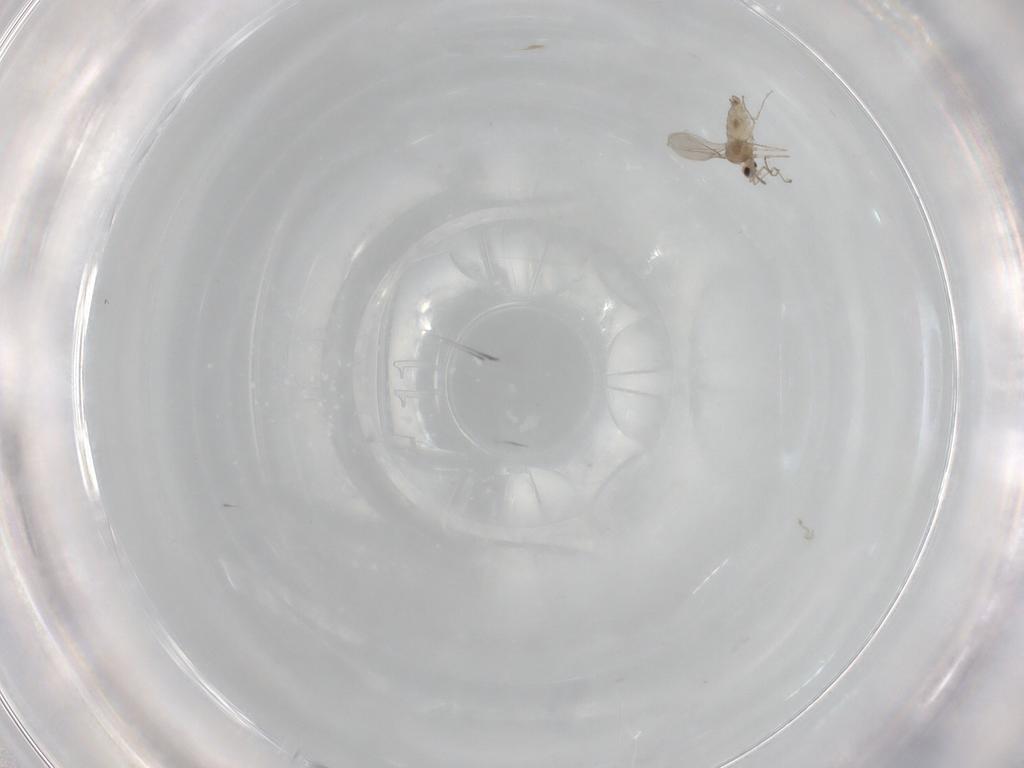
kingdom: Animalia
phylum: Arthropoda
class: Insecta
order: Diptera
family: Cecidomyiidae
